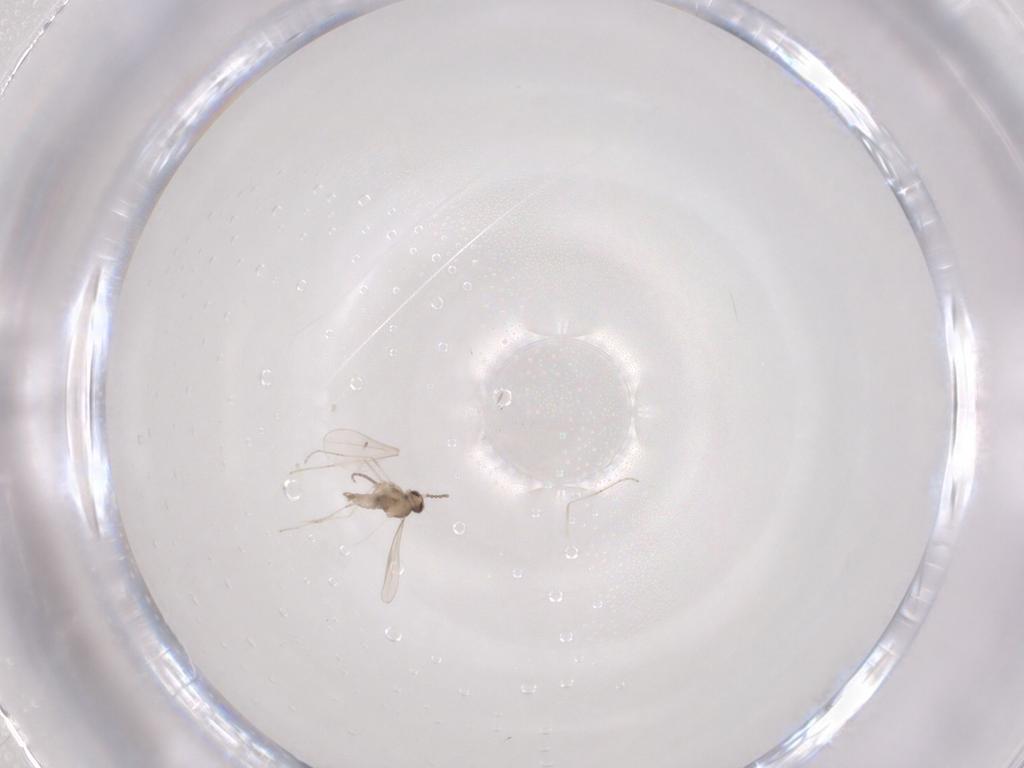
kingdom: Animalia
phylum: Arthropoda
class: Insecta
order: Diptera
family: Cecidomyiidae
